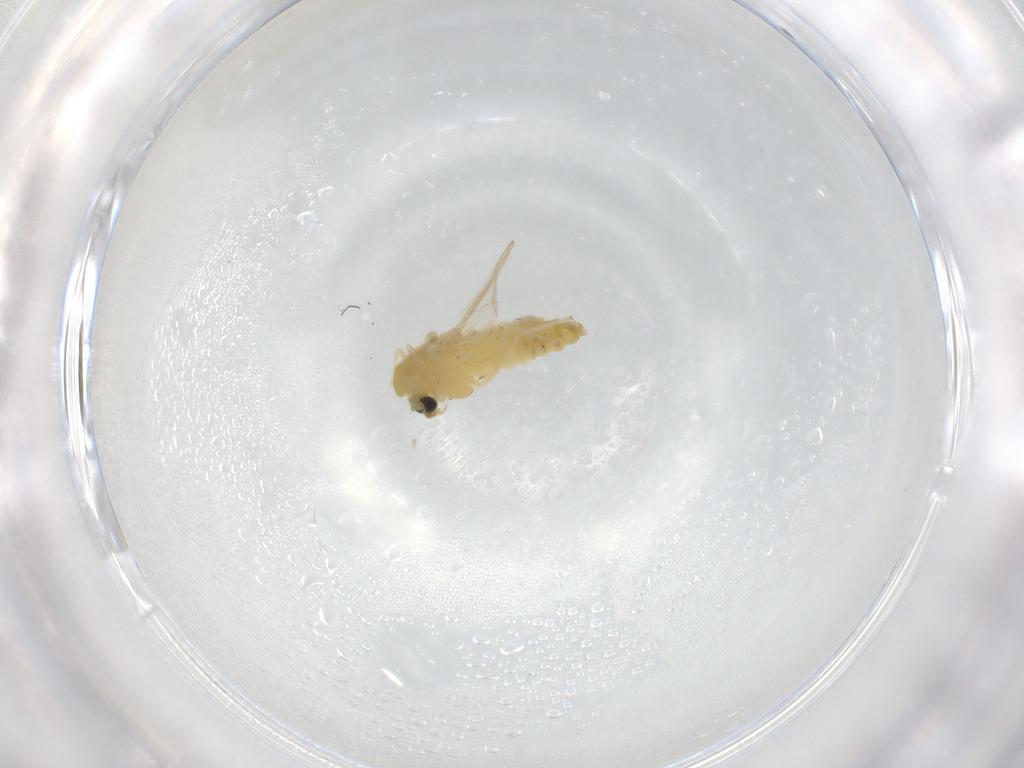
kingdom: Animalia
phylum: Arthropoda
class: Insecta
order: Diptera
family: Chironomidae
